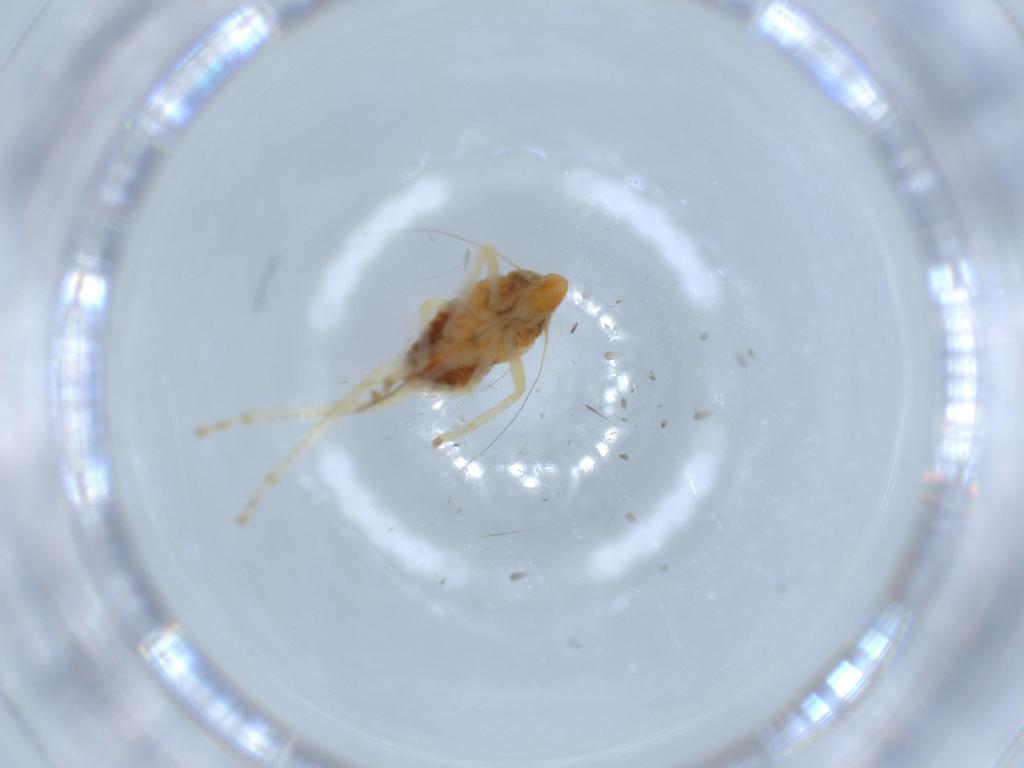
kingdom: Animalia
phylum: Arthropoda
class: Insecta
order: Hemiptera
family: Cicadellidae
